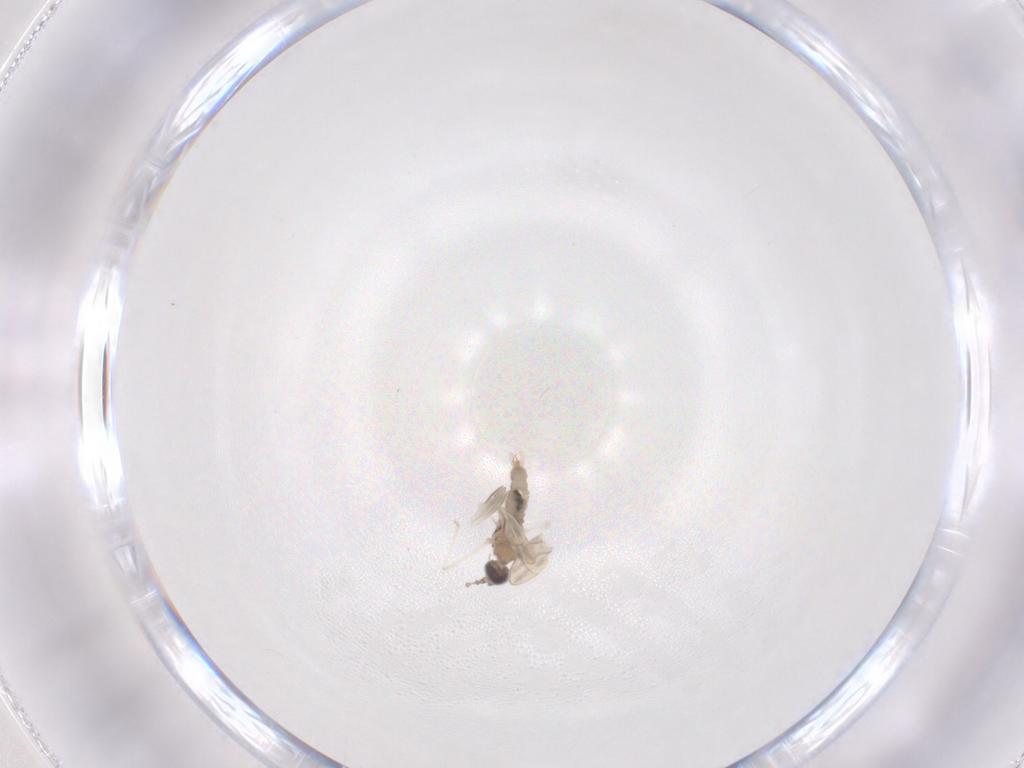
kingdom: Animalia
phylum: Arthropoda
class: Insecta
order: Diptera
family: Cecidomyiidae
